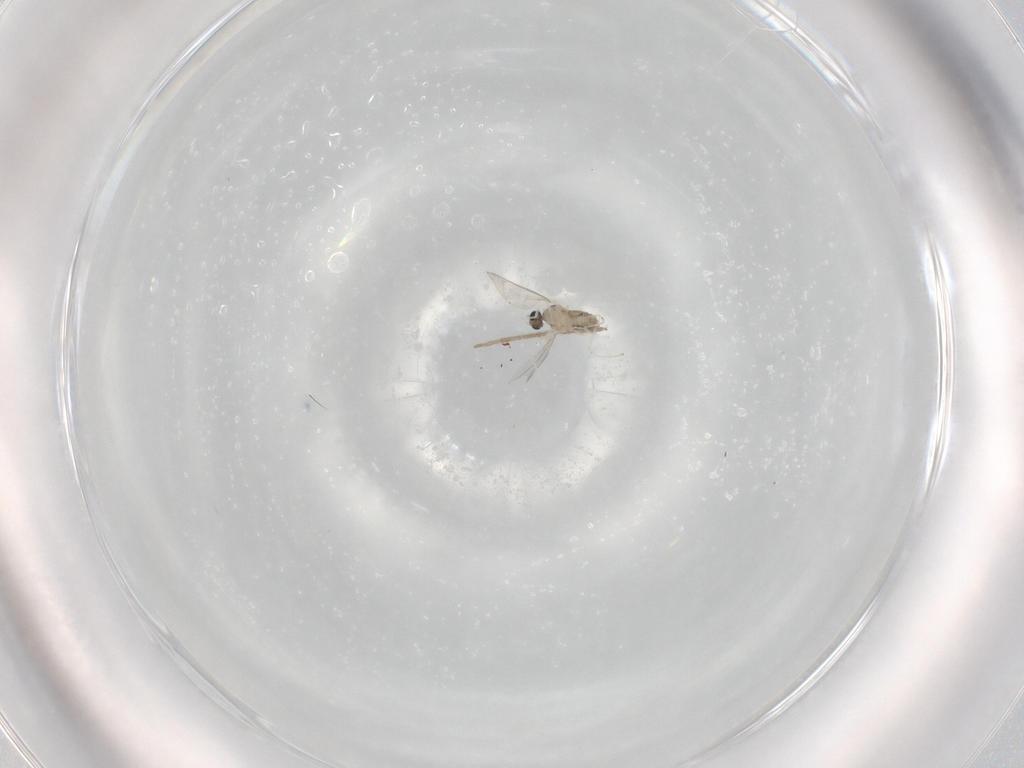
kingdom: Animalia
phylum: Arthropoda
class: Insecta
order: Diptera
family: Cecidomyiidae
